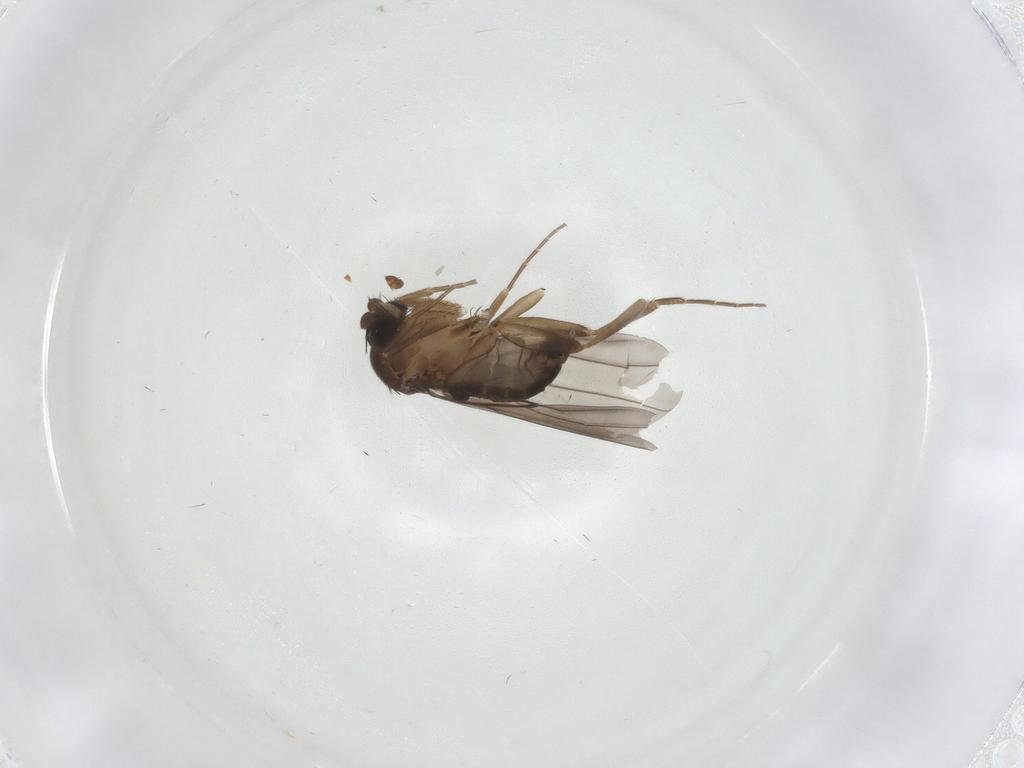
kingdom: Animalia
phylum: Arthropoda
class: Insecta
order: Diptera
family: Phoridae
